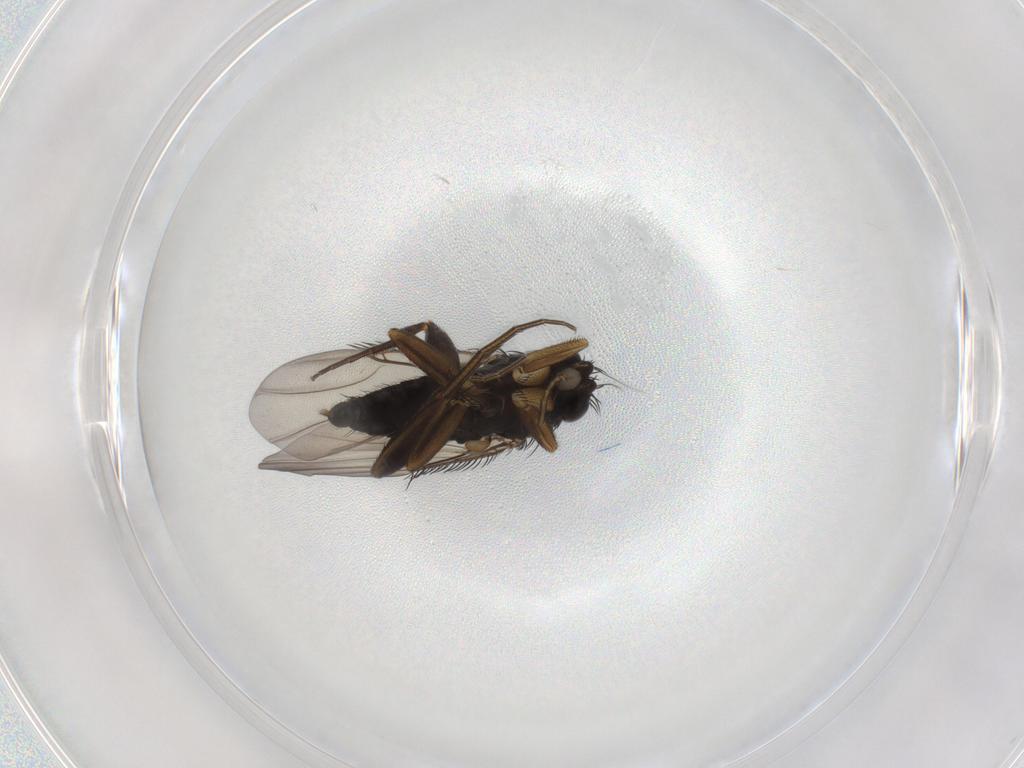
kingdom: Animalia
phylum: Arthropoda
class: Insecta
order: Diptera
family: Phoridae
